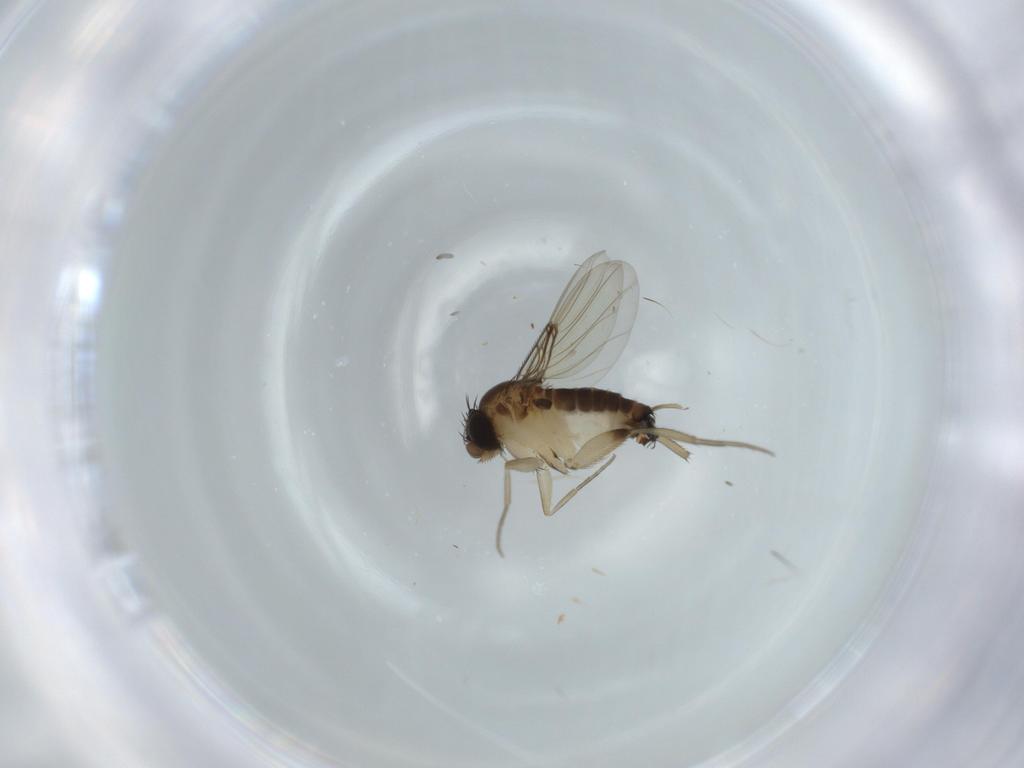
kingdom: Animalia
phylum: Arthropoda
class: Insecta
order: Diptera
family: Phoridae
